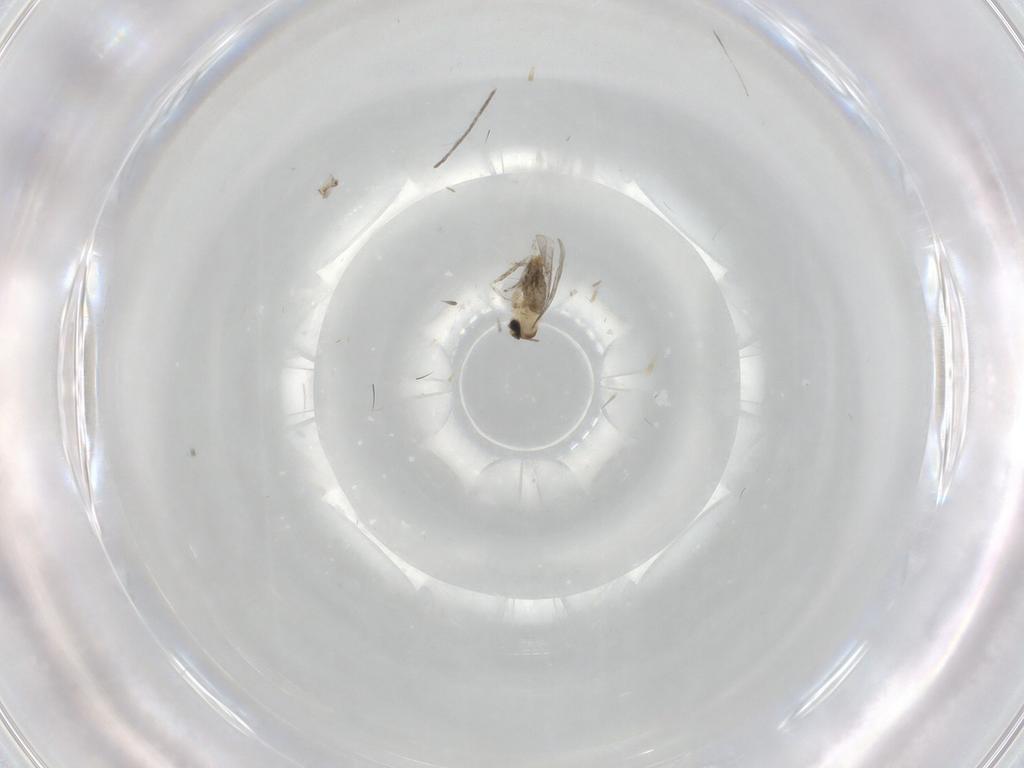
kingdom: Animalia
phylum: Arthropoda
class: Insecta
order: Diptera
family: Cecidomyiidae
